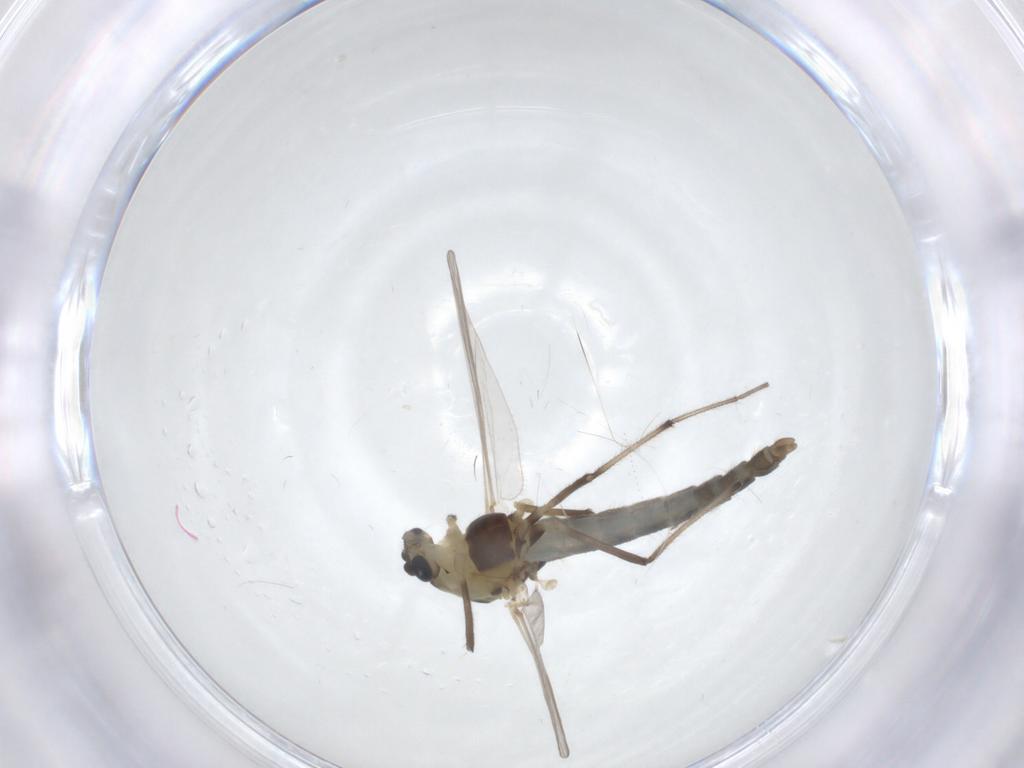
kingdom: Animalia
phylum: Arthropoda
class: Insecta
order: Diptera
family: Chironomidae
